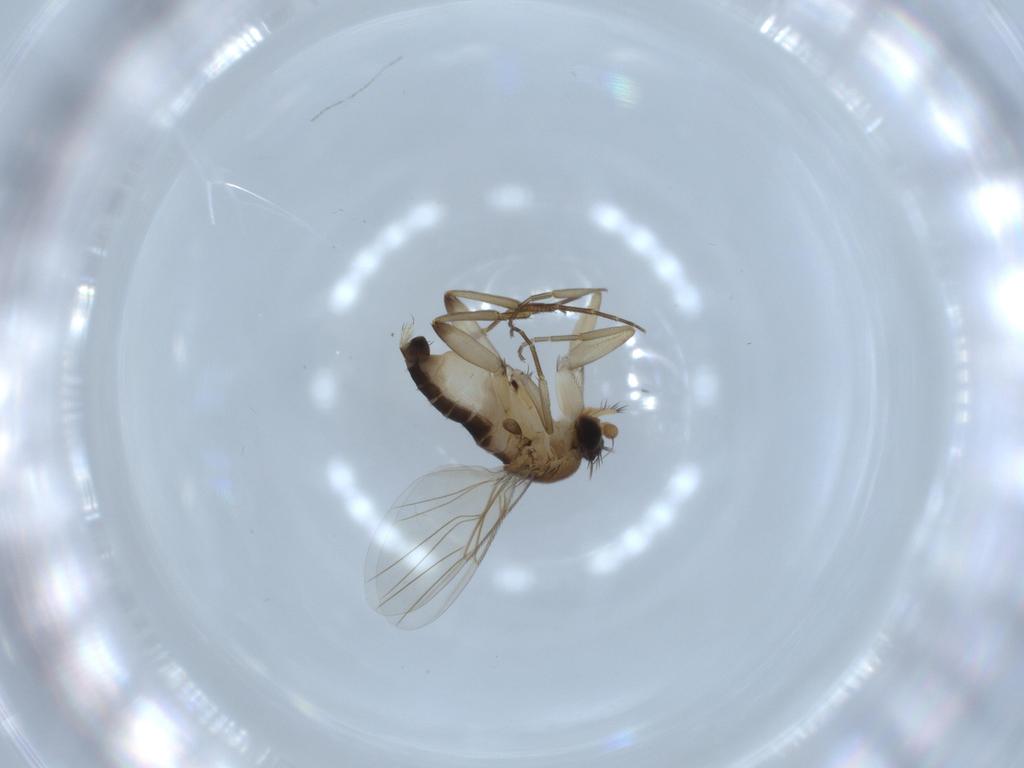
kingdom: Animalia
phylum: Arthropoda
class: Insecta
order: Diptera
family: Phoridae
